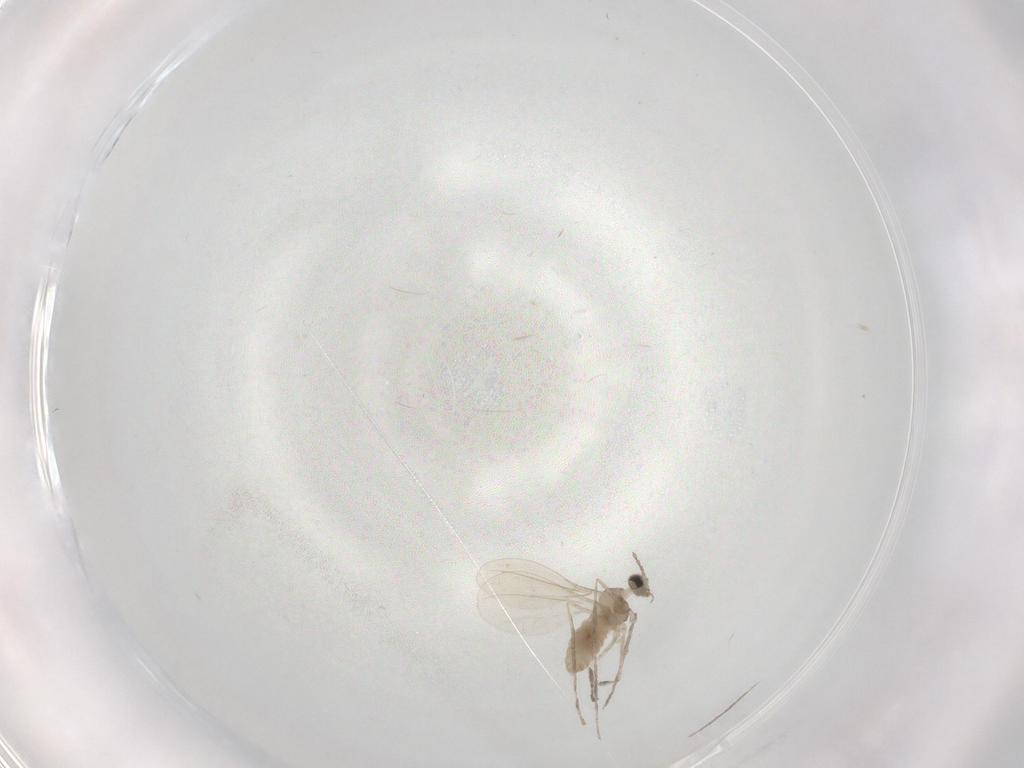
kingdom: Animalia
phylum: Arthropoda
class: Insecta
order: Diptera
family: Cecidomyiidae
